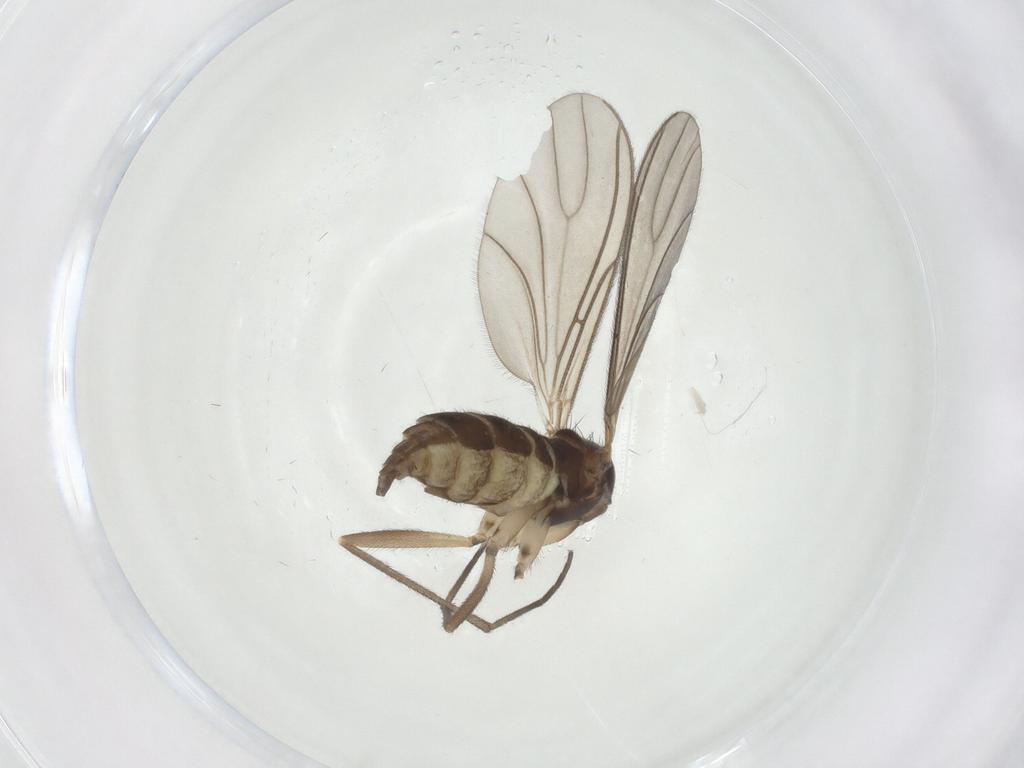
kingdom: Animalia
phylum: Arthropoda
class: Insecta
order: Diptera
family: Sciaridae
